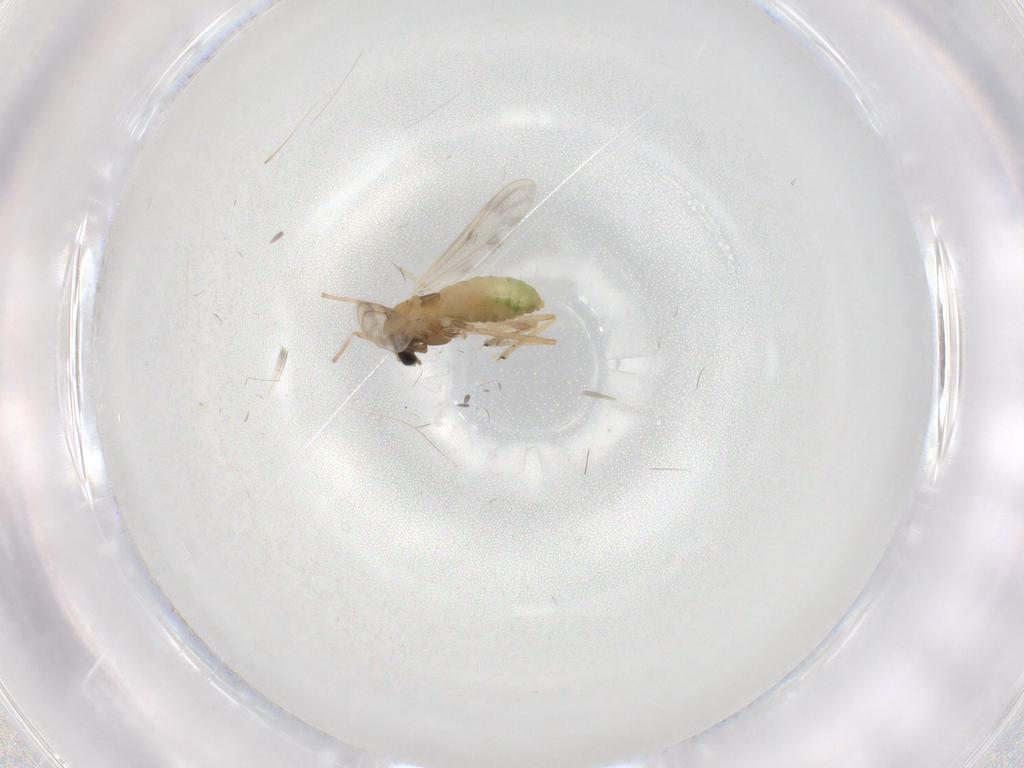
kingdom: Animalia
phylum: Arthropoda
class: Insecta
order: Diptera
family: Chironomidae
